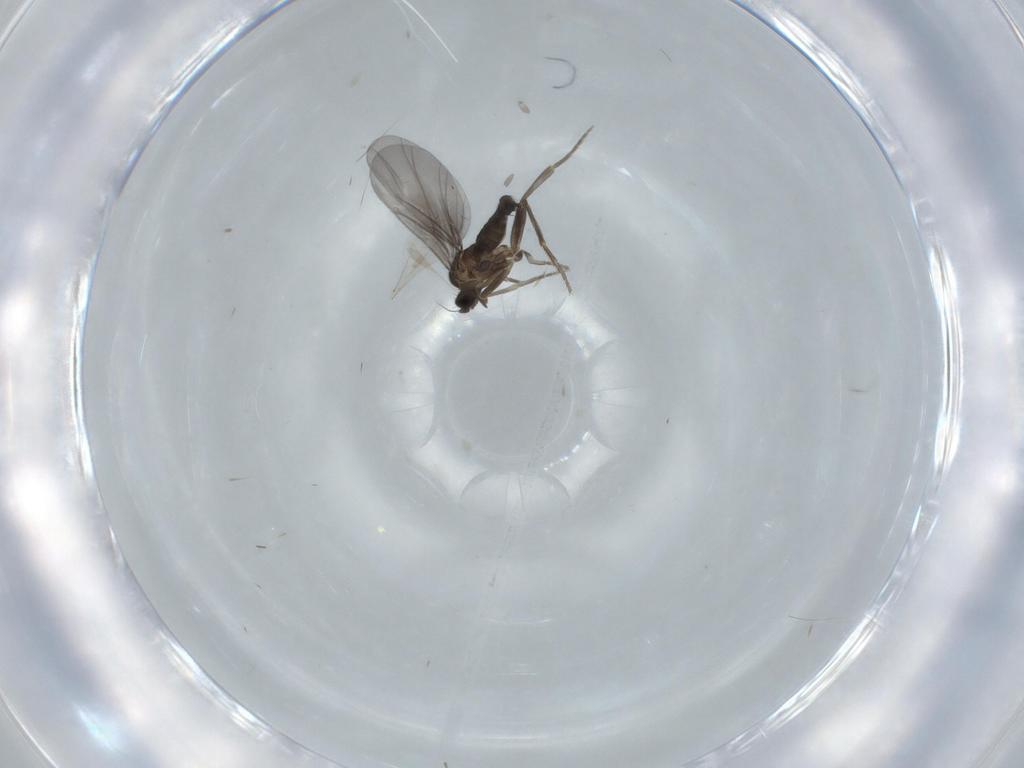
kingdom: Animalia
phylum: Arthropoda
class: Insecta
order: Diptera
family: Phoridae
